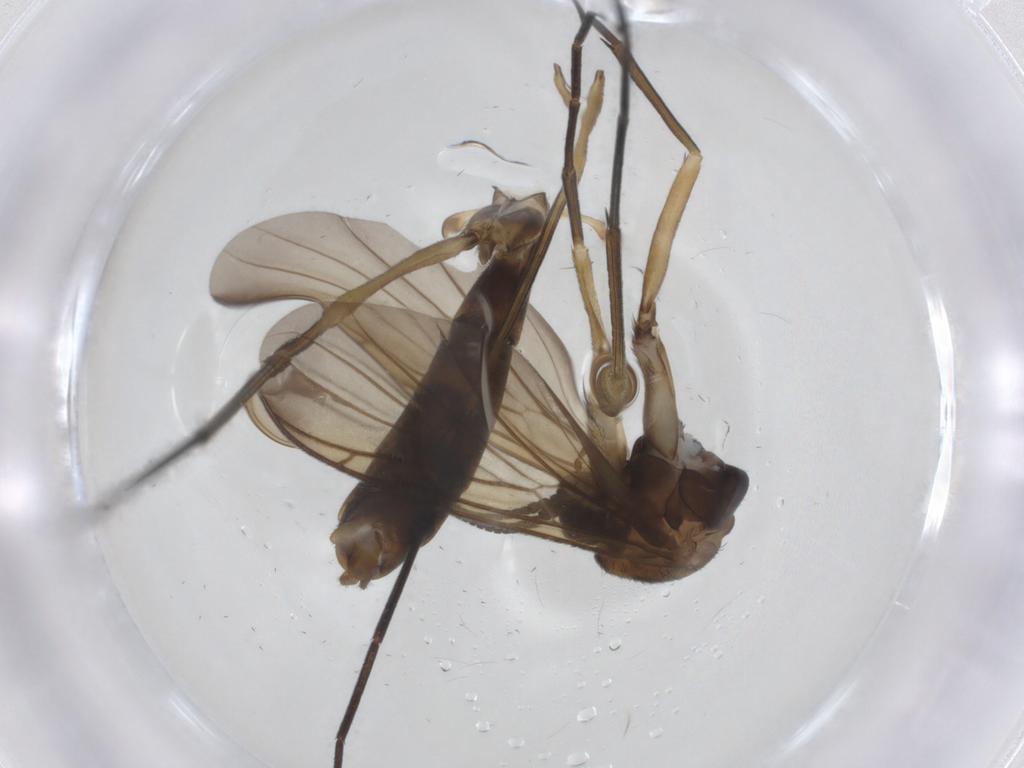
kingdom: Animalia
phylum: Arthropoda
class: Insecta
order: Diptera
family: Keroplatidae
